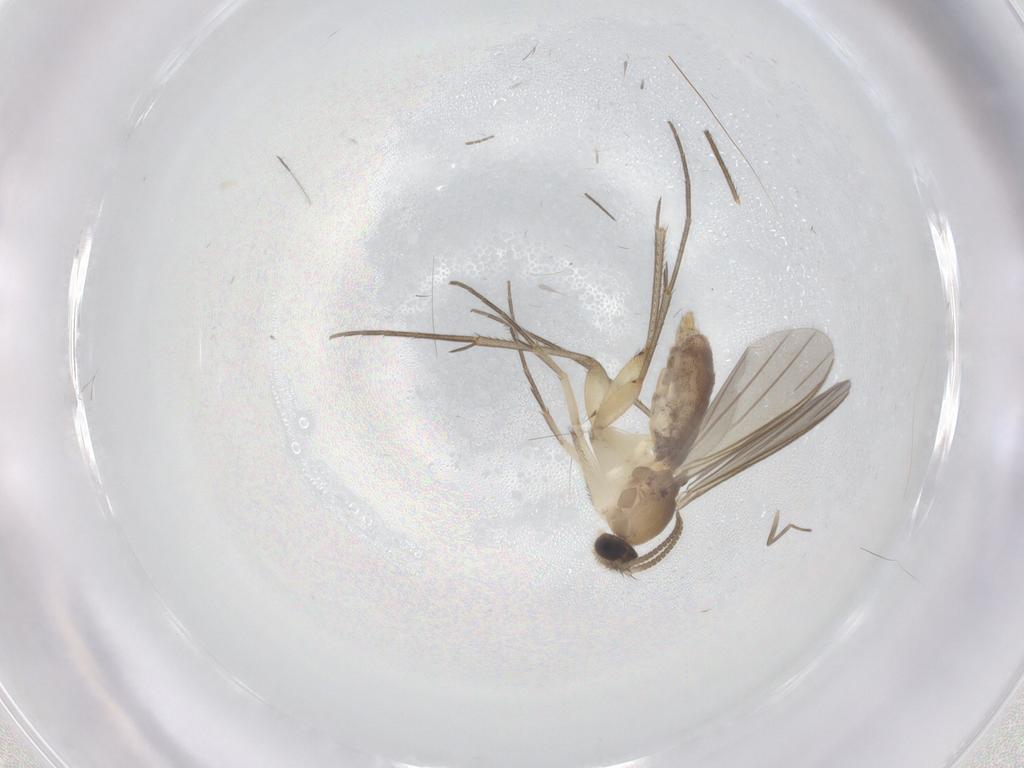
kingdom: Animalia
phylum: Arthropoda
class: Insecta
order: Diptera
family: Mycetophilidae
